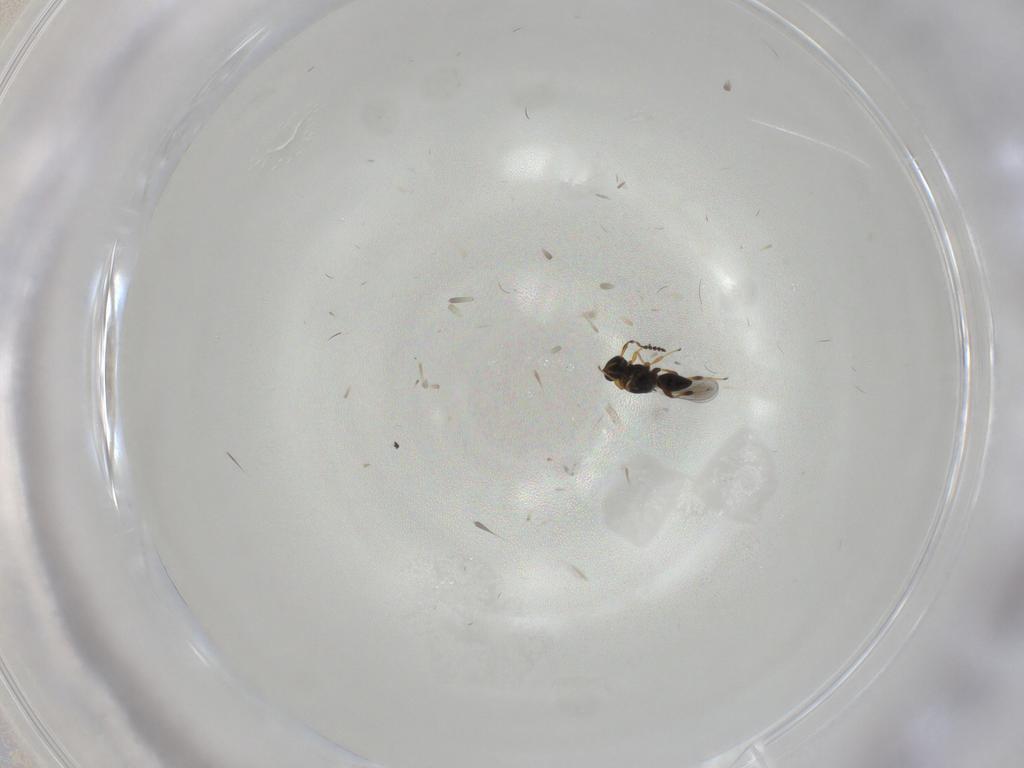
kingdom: Animalia
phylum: Arthropoda
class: Insecta
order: Hymenoptera
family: Platygastridae
